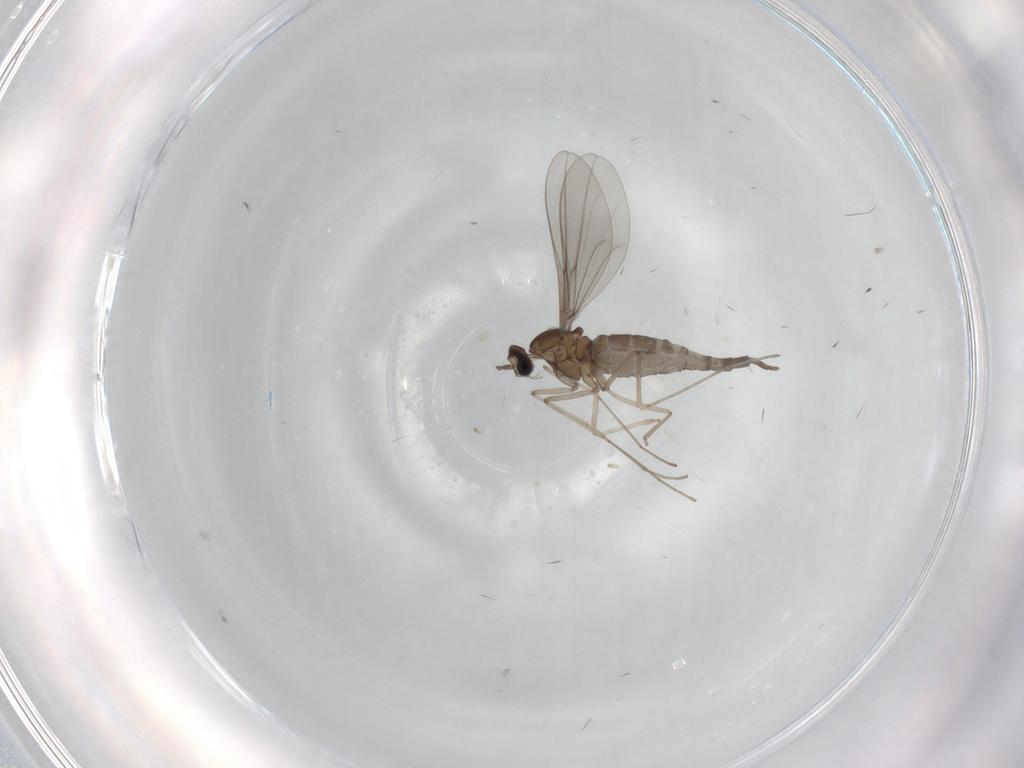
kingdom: Animalia
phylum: Arthropoda
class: Insecta
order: Diptera
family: Cecidomyiidae
